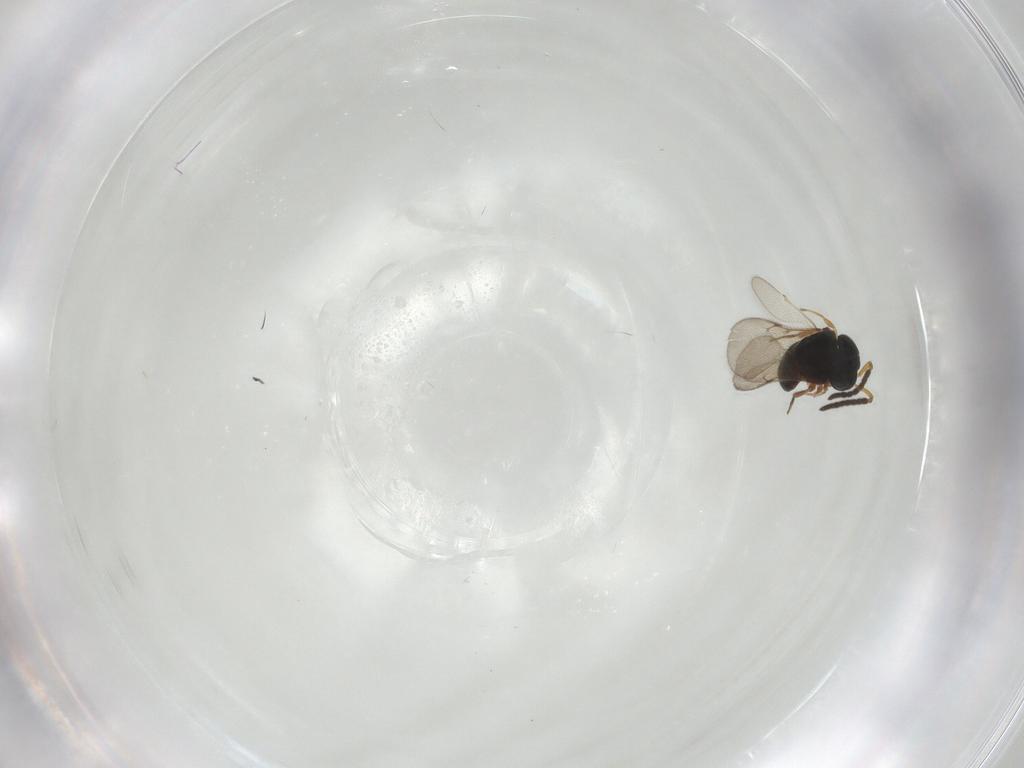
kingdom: Animalia
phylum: Arthropoda
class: Insecta
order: Hymenoptera
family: Scelionidae
